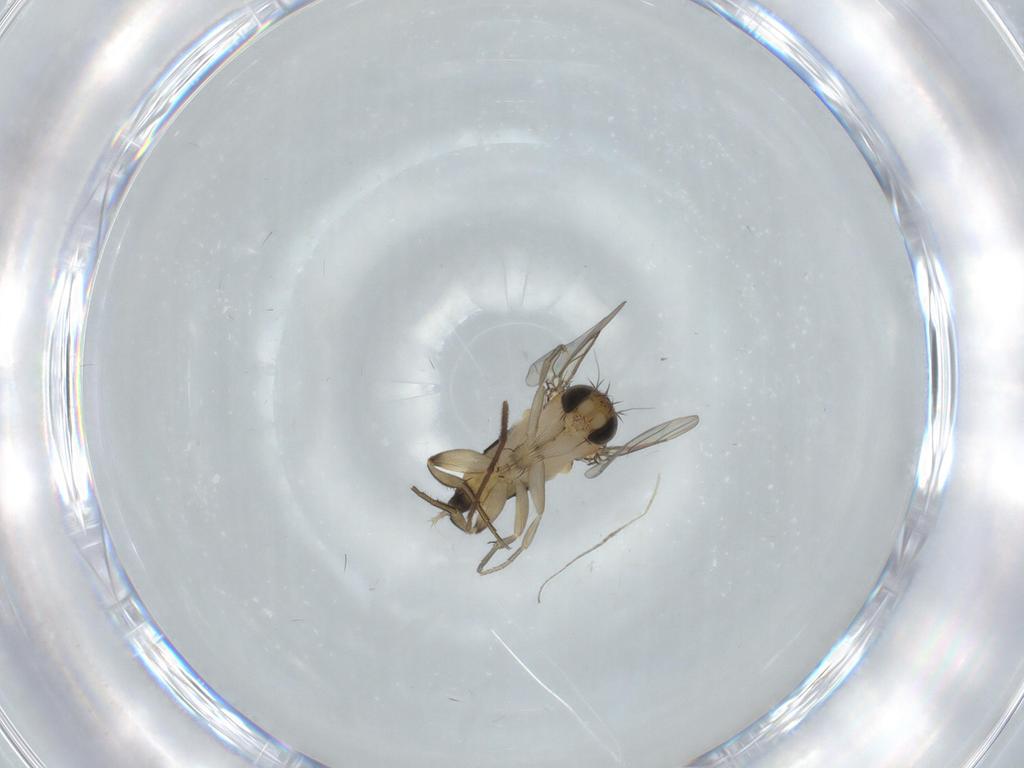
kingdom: Animalia
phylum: Arthropoda
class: Insecta
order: Diptera
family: Phoridae
